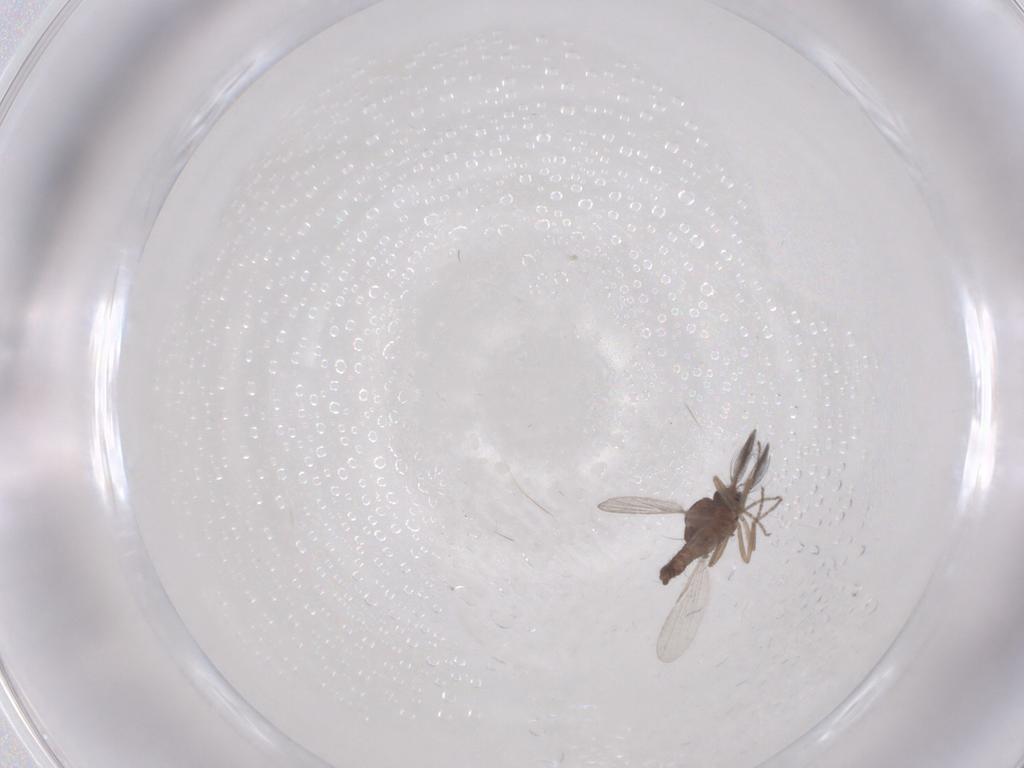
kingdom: Animalia
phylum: Arthropoda
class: Insecta
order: Diptera
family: Ceratopogonidae
